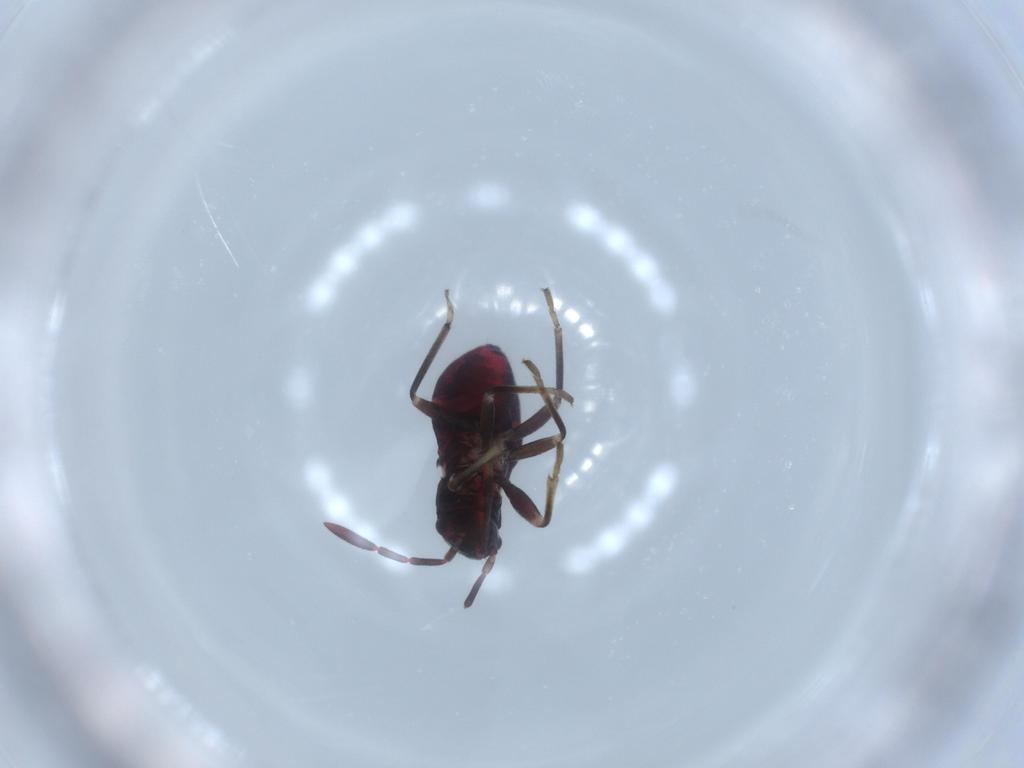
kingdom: Animalia
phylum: Arthropoda
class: Insecta
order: Hemiptera
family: Rhyparochromidae
